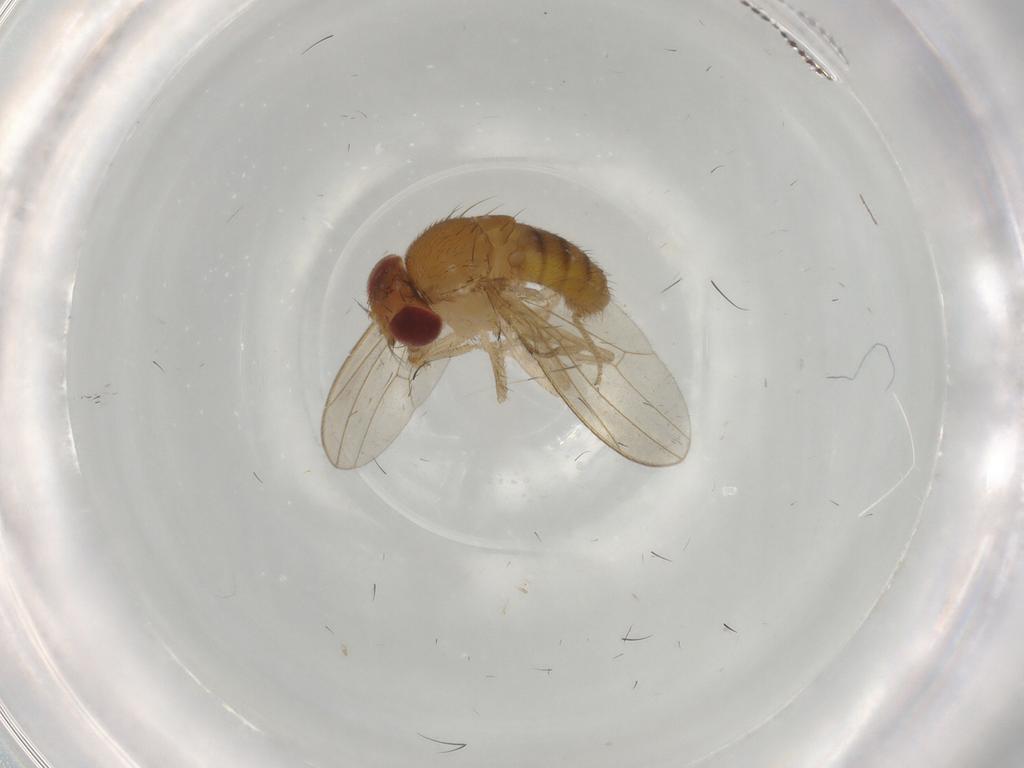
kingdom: Animalia
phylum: Arthropoda
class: Insecta
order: Diptera
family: Drosophilidae
